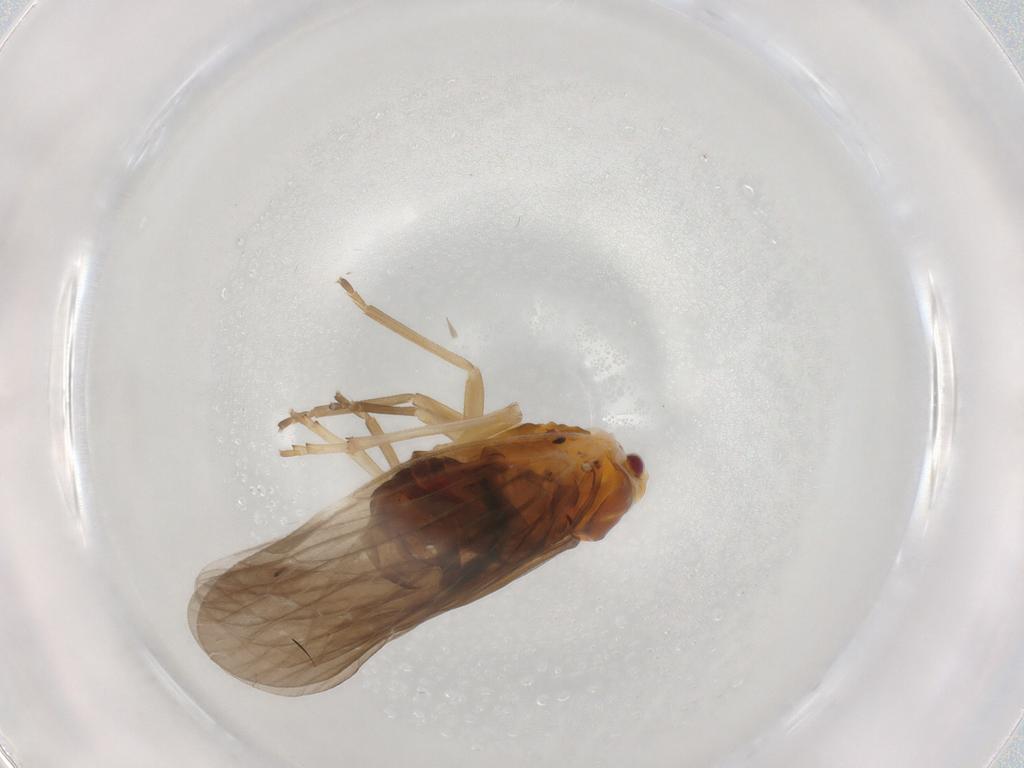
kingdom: Animalia
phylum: Arthropoda
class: Insecta
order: Hemiptera
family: Derbidae
